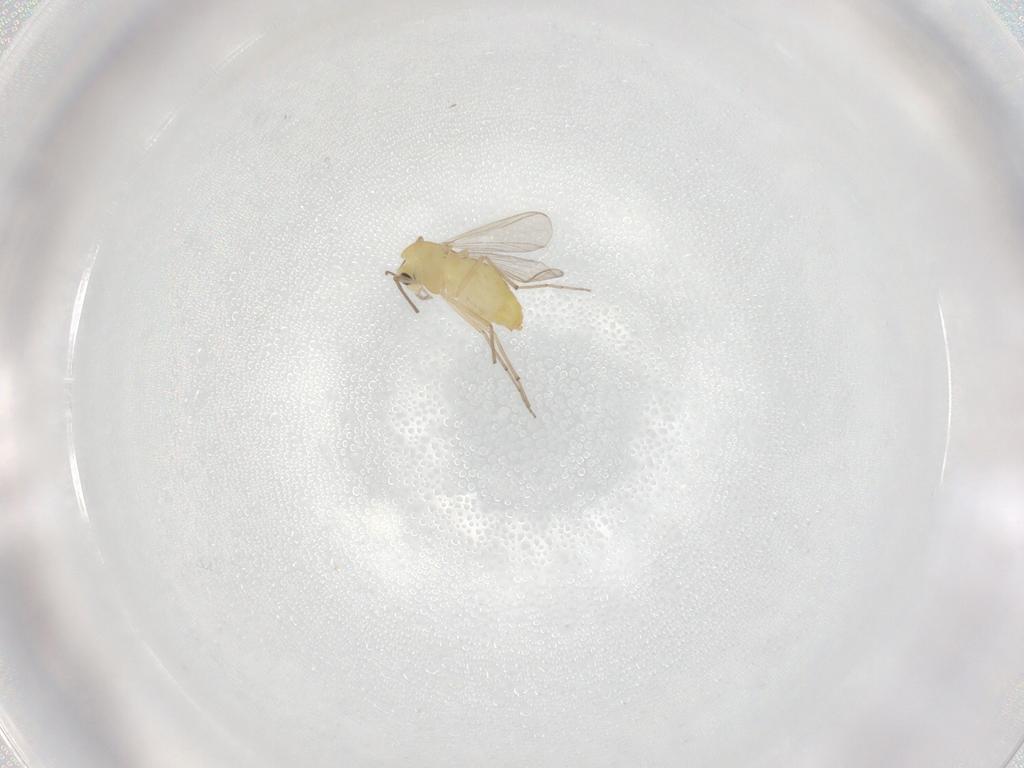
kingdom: Animalia
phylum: Arthropoda
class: Insecta
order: Diptera
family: Chironomidae
